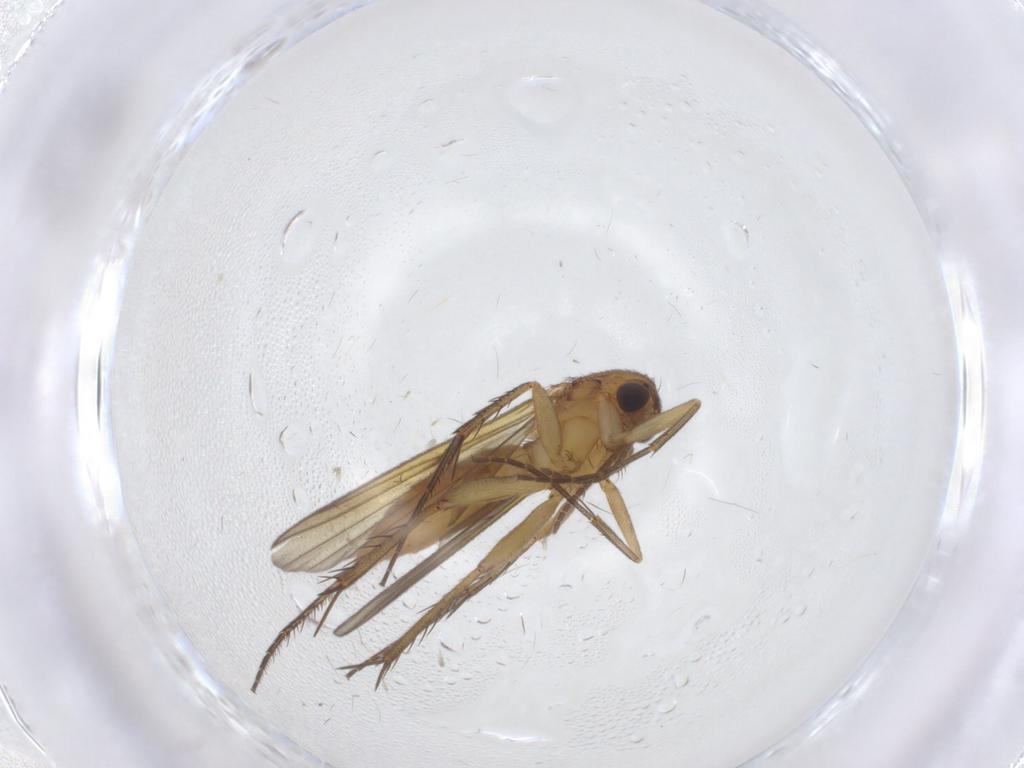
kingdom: Animalia
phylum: Arthropoda
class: Insecta
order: Diptera
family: Mycetophilidae
